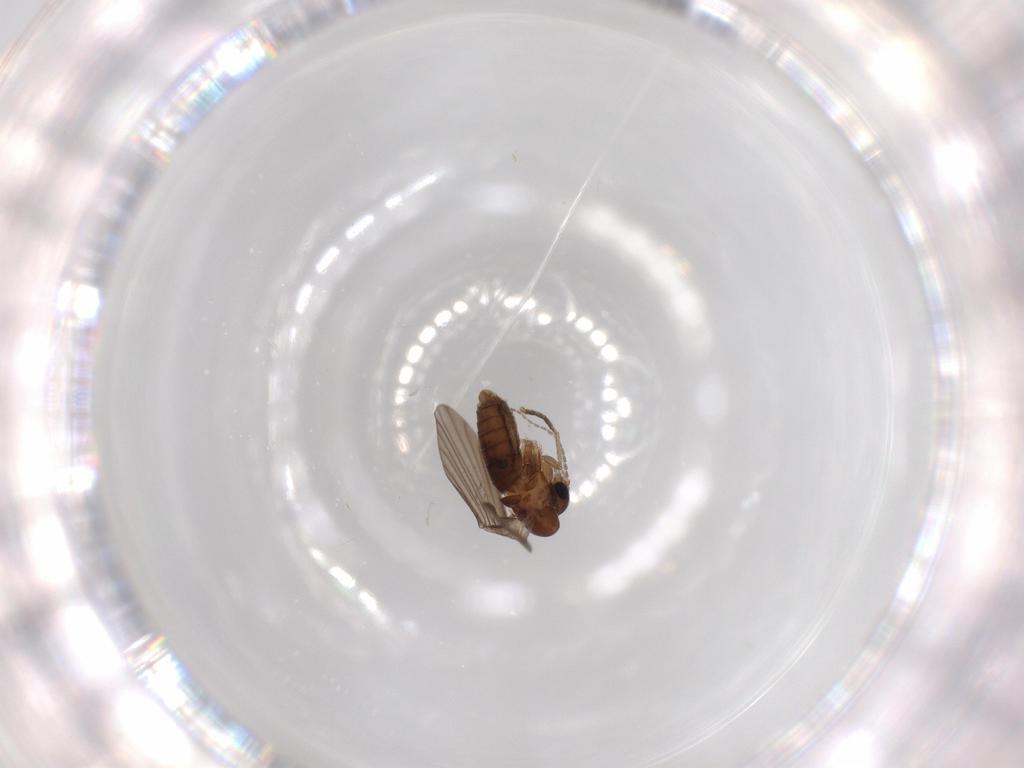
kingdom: Animalia
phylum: Arthropoda
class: Insecta
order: Diptera
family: Psychodidae
